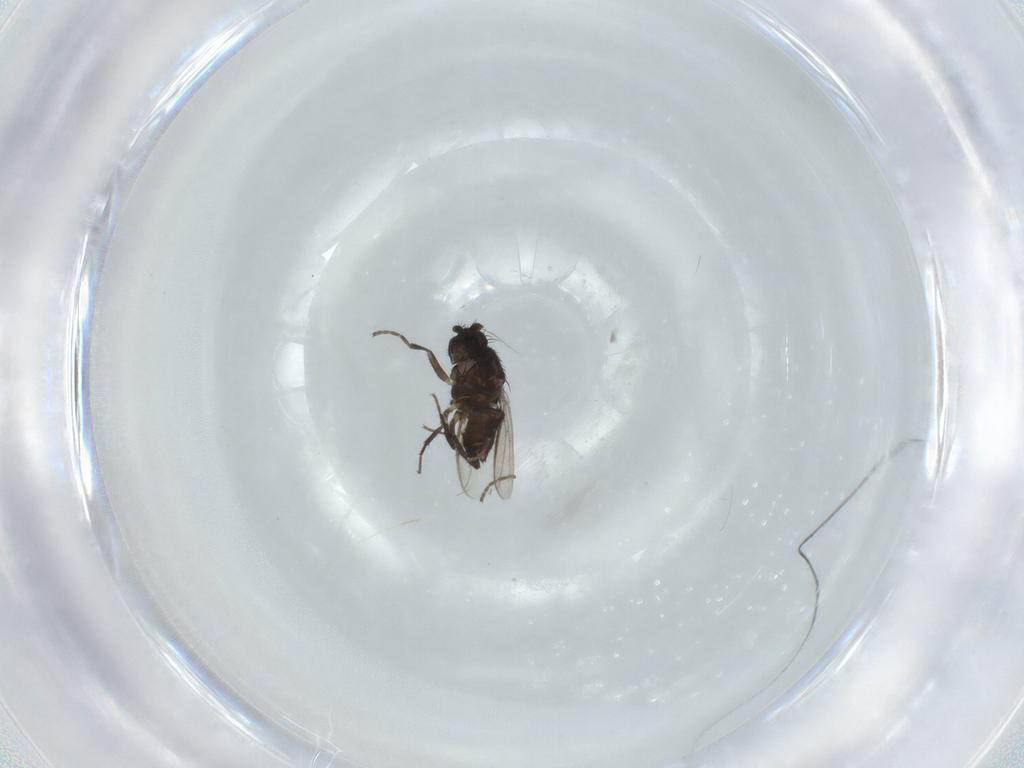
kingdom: Animalia
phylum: Arthropoda
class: Insecta
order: Diptera
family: Sphaeroceridae
